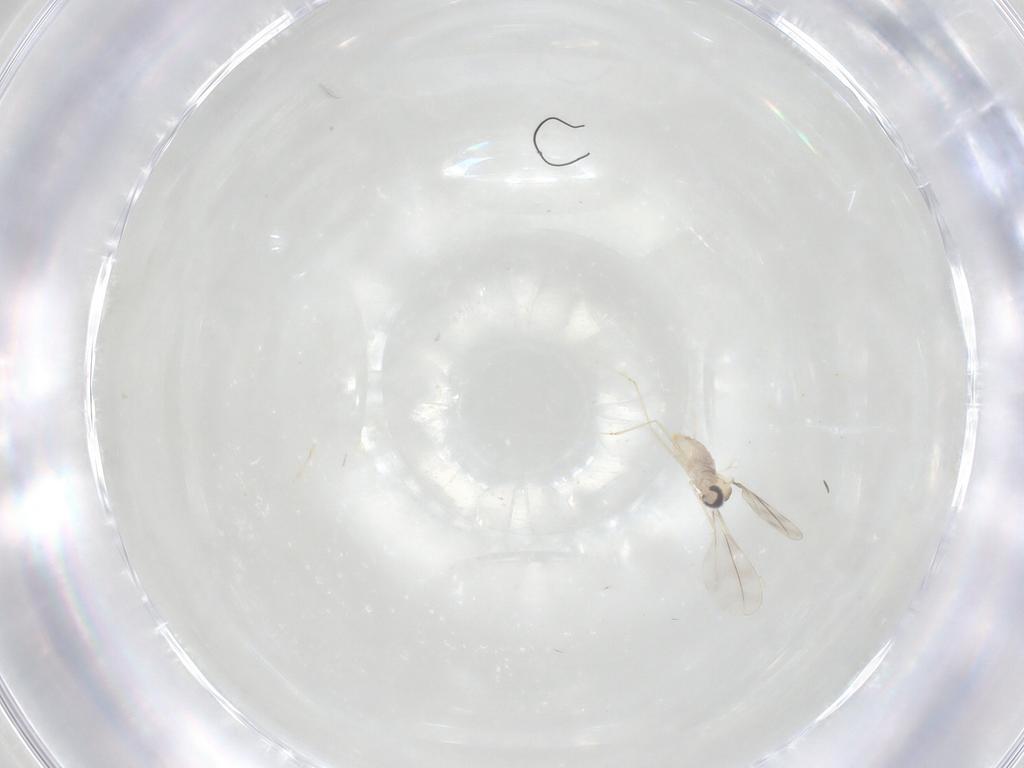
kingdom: Animalia
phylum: Arthropoda
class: Insecta
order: Diptera
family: Cecidomyiidae
